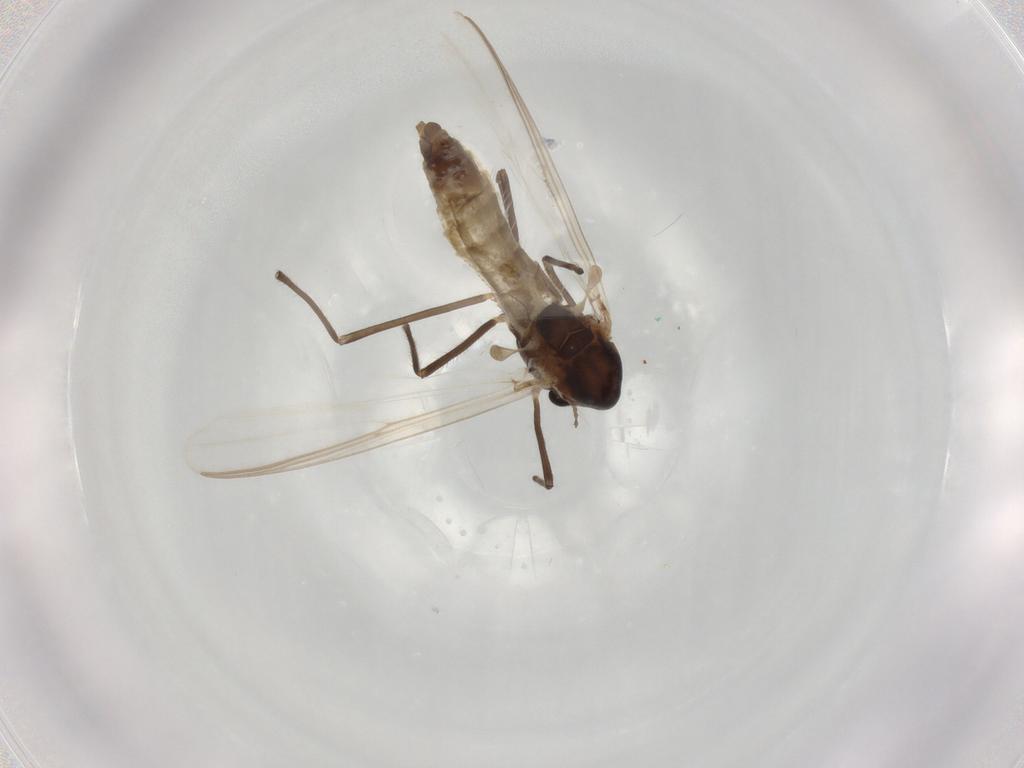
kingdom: Animalia
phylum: Arthropoda
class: Insecta
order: Diptera
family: Chironomidae
